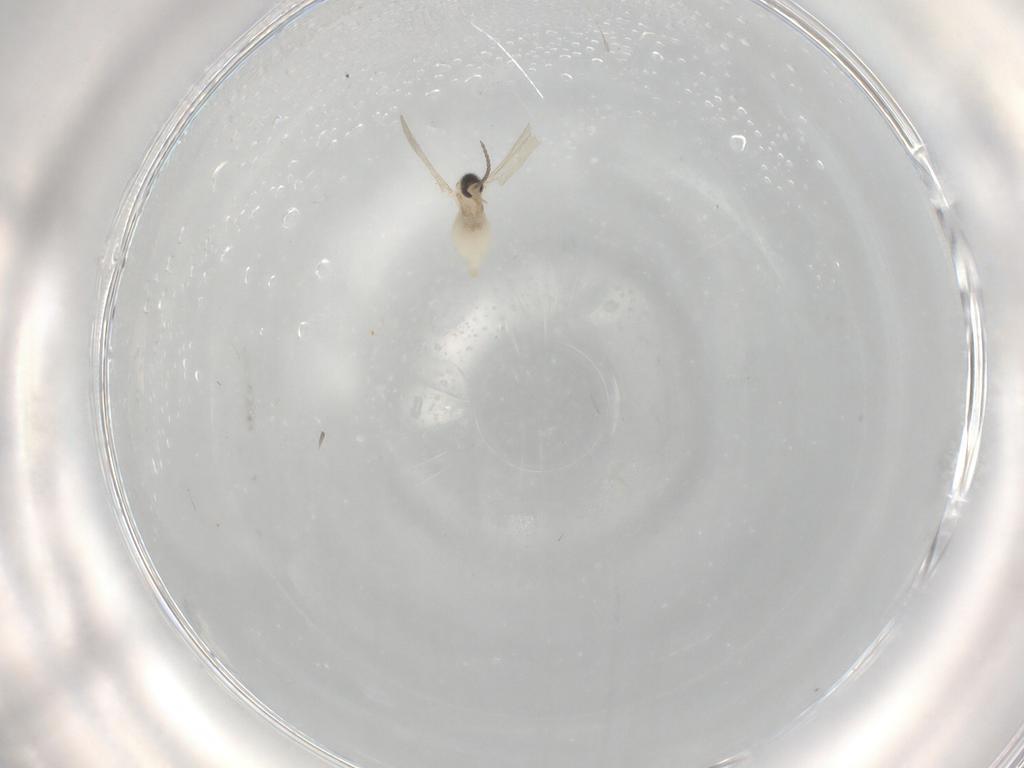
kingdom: Animalia
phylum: Arthropoda
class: Insecta
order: Diptera
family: Cecidomyiidae
